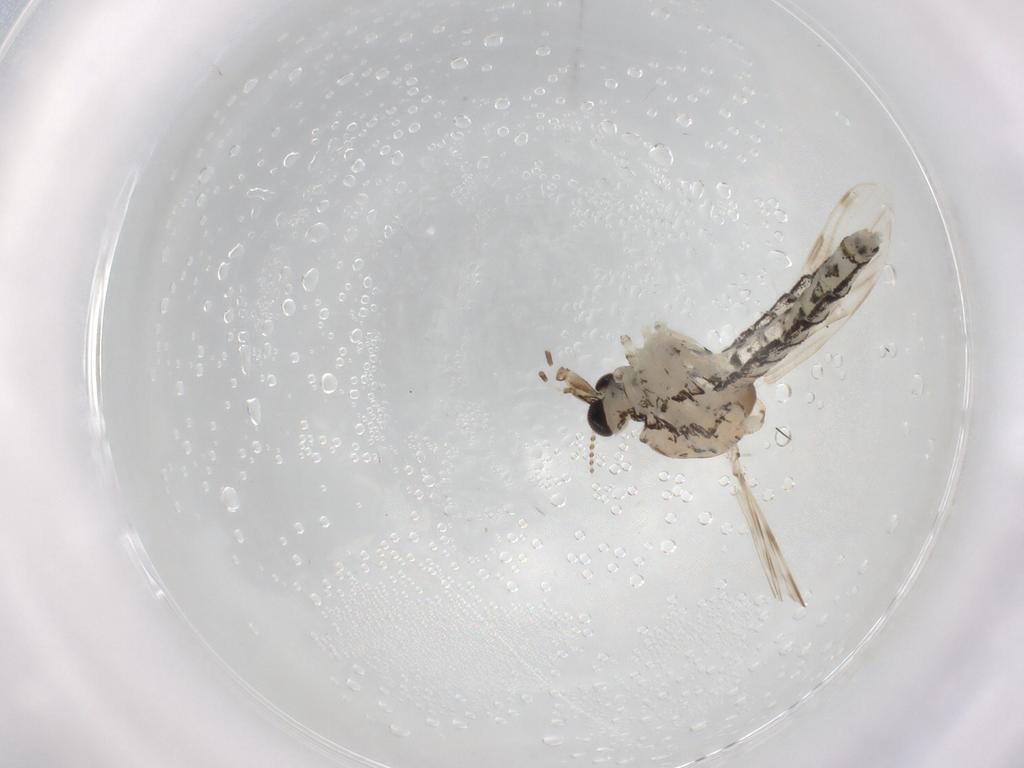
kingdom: Animalia
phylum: Arthropoda
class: Insecta
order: Diptera
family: Chaoboridae
